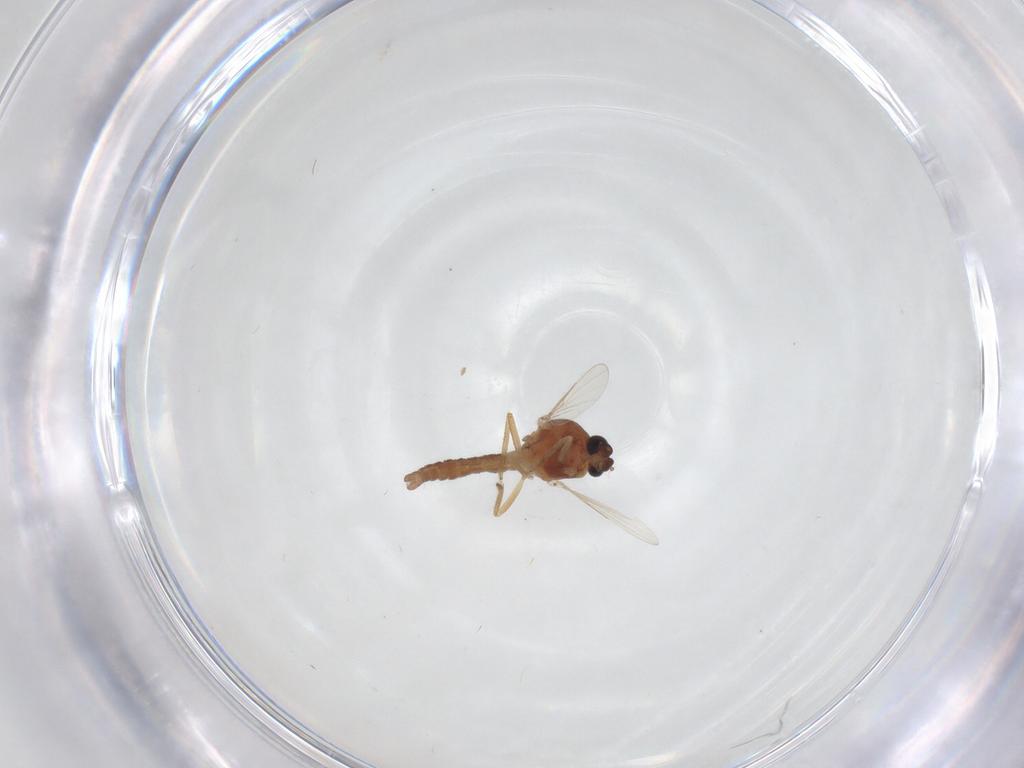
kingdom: Animalia
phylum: Arthropoda
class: Insecta
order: Diptera
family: Ceratopogonidae
